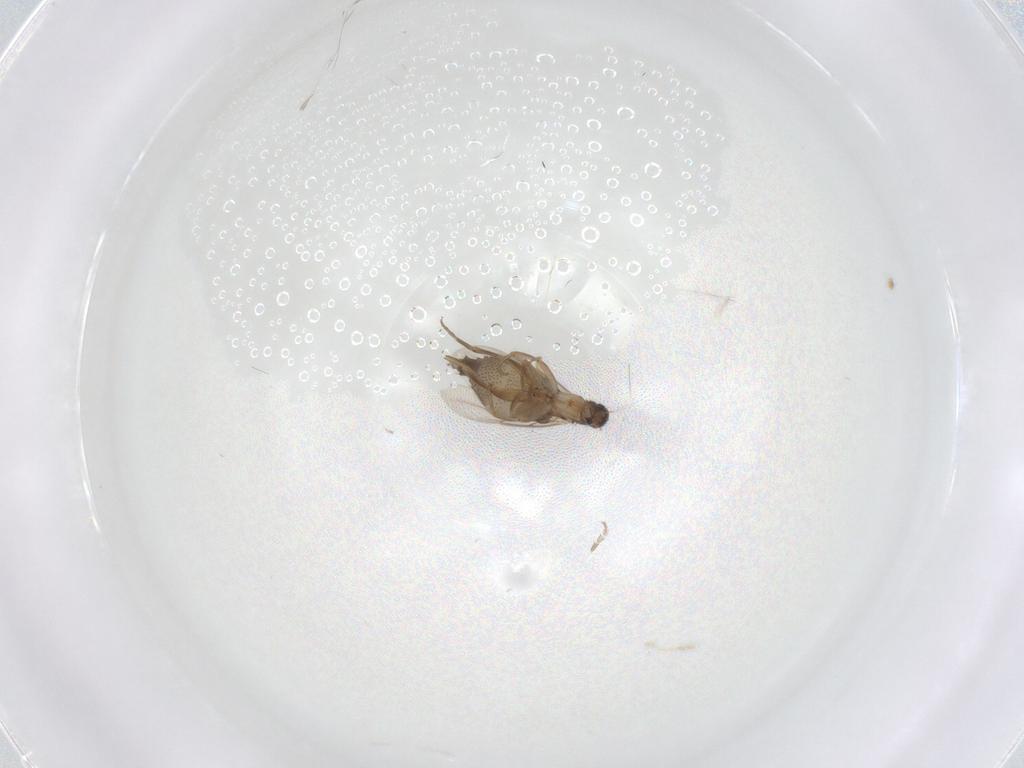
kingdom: Animalia
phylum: Arthropoda
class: Insecta
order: Diptera
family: Phoridae
